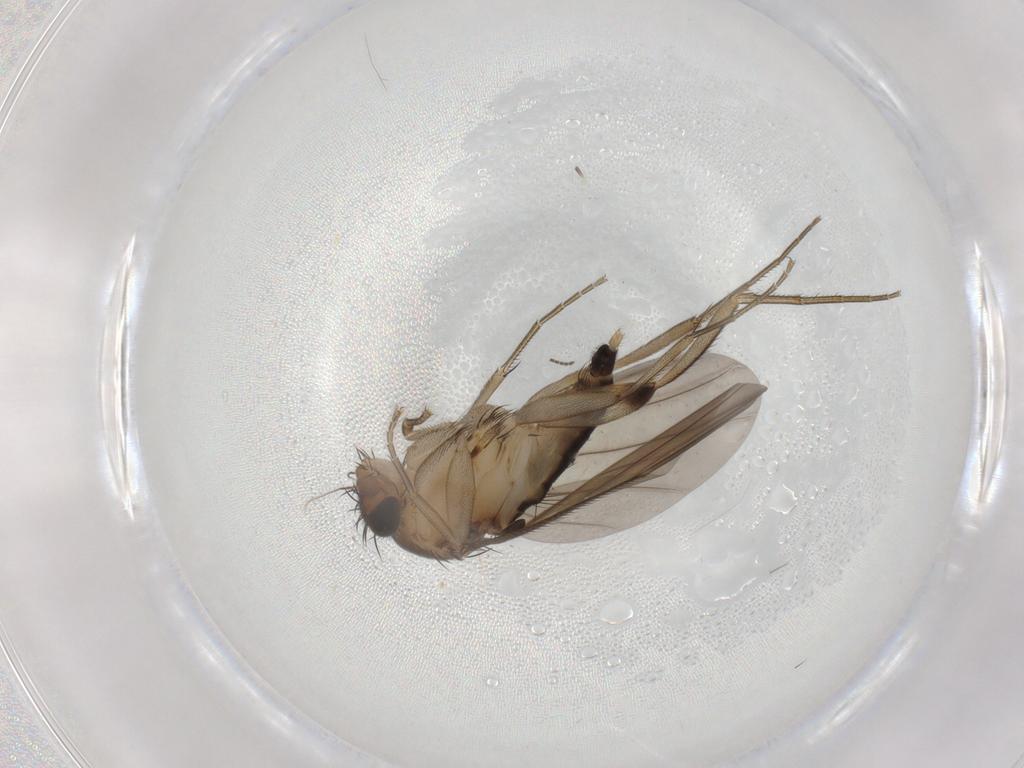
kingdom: Animalia
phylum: Arthropoda
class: Insecta
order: Diptera
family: Phoridae
